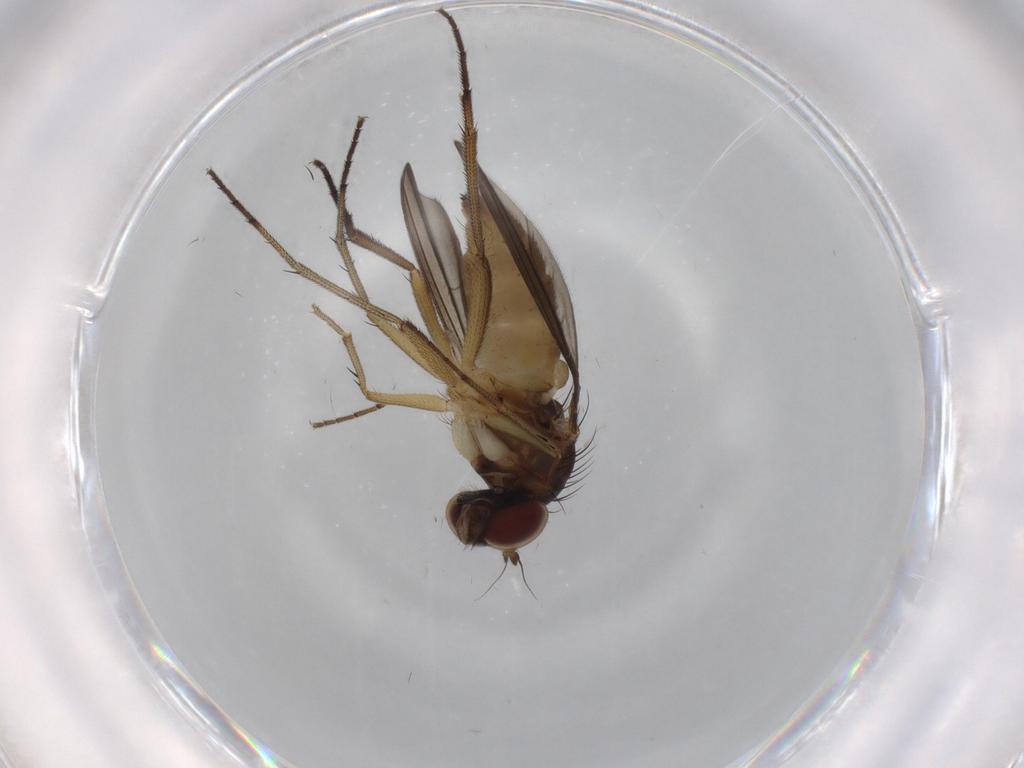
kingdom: Animalia
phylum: Arthropoda
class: Insecta
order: Diptera
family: Dolichopodidae
